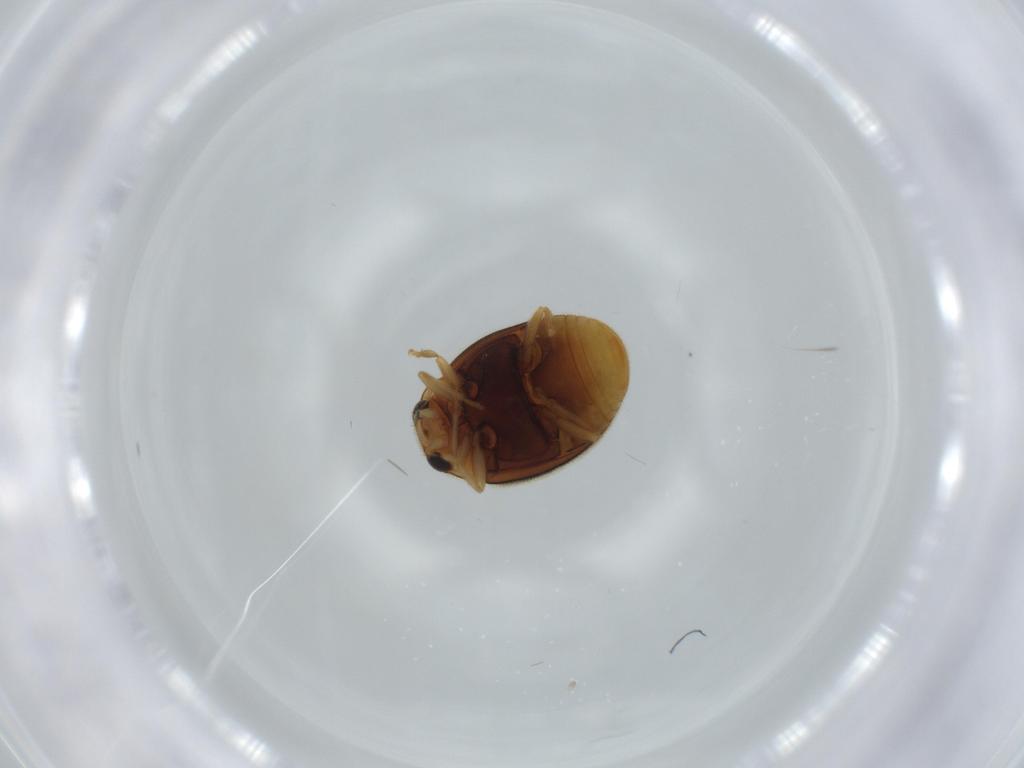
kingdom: Animalia
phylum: Arthropoda
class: Insecta
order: Coleoptera
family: Coccinellidae
